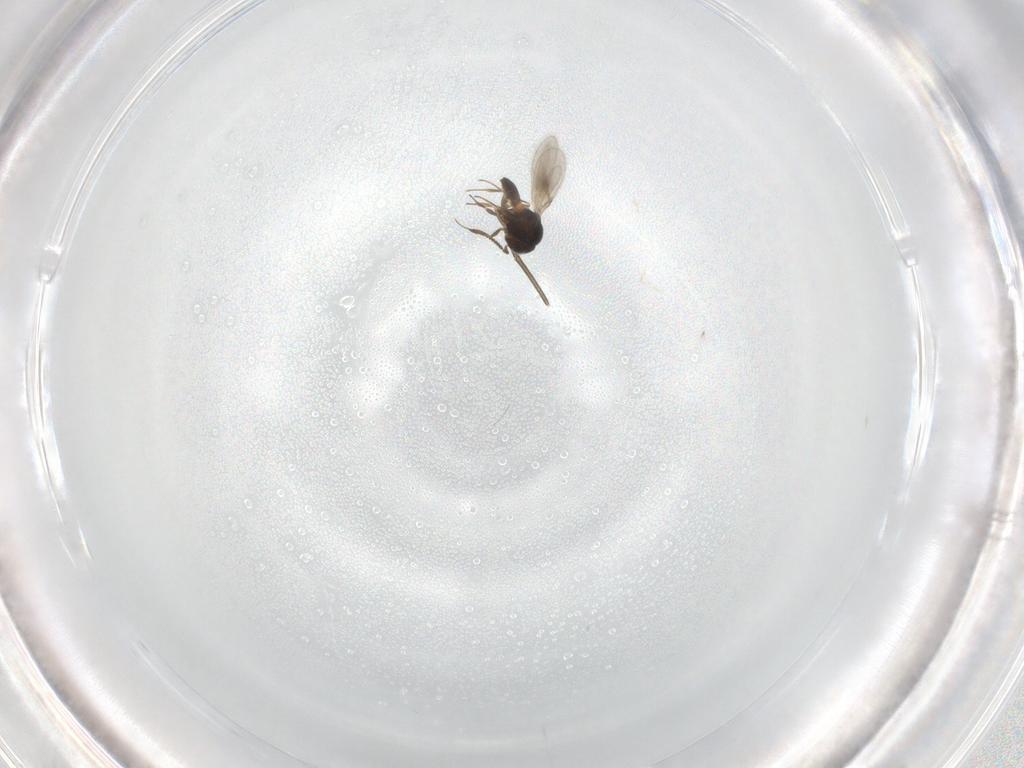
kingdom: Animalia
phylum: Arthropoda
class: Insecta
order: Hymenoptera
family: Scelionidae
